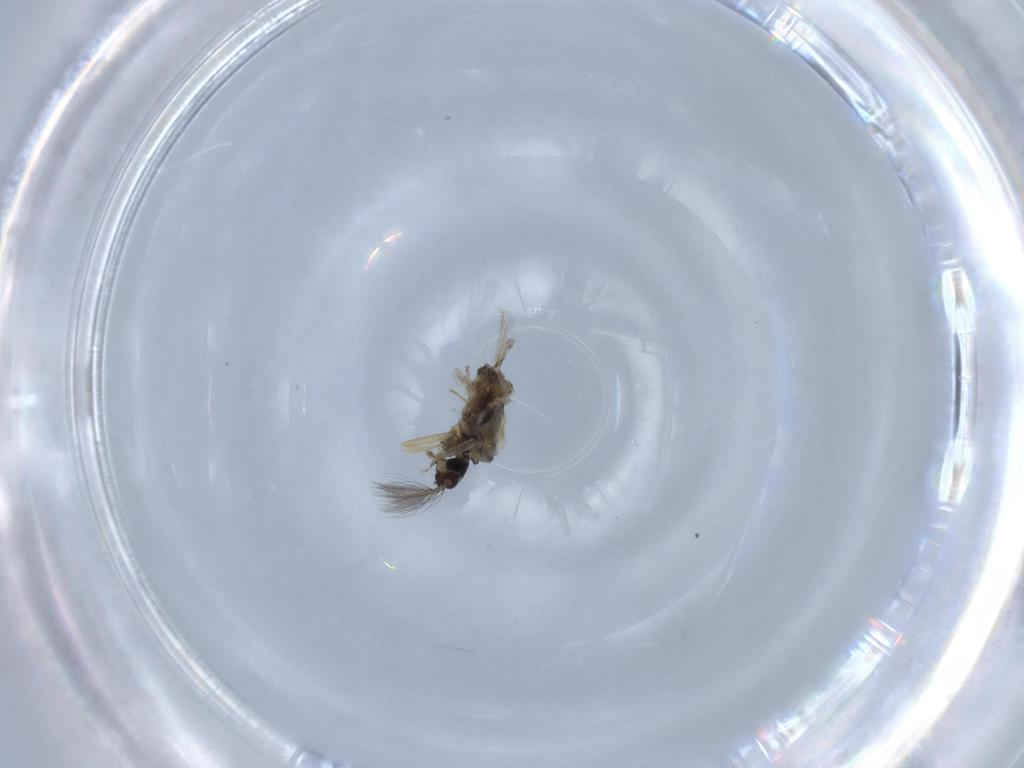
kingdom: Animalia
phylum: Arthropoda
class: Insecta
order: Diptera
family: Ceratopogonidae
